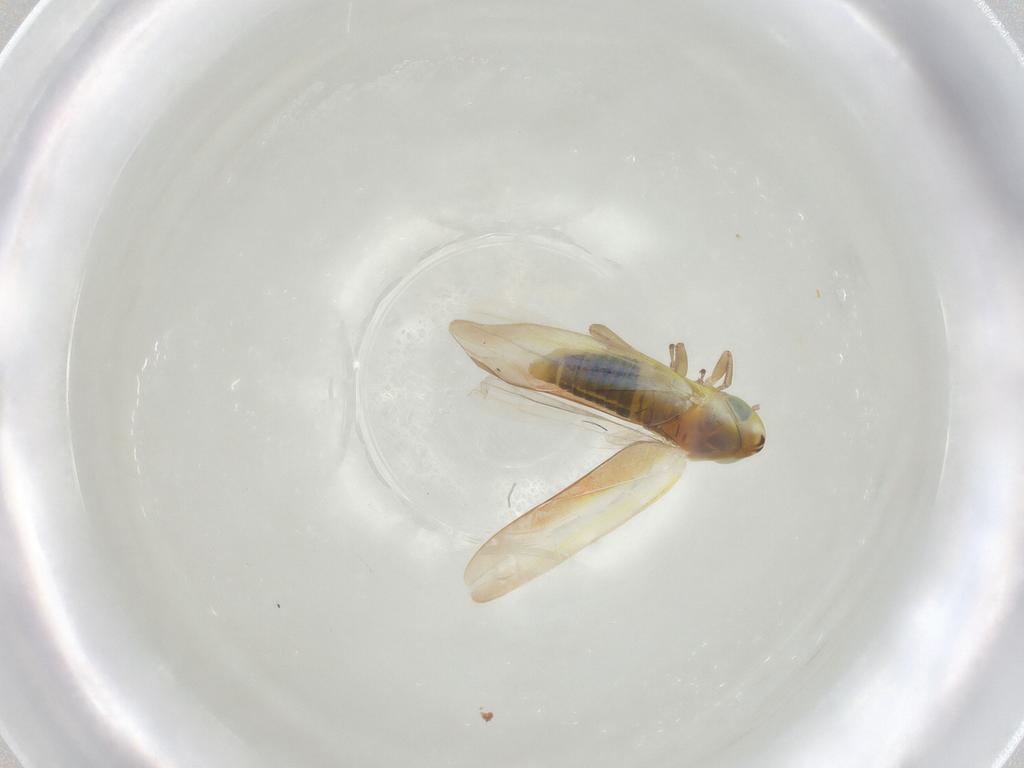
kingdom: Animalia
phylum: Arthropoda
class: Insecta
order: Hemiptera
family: Cicadellidae
